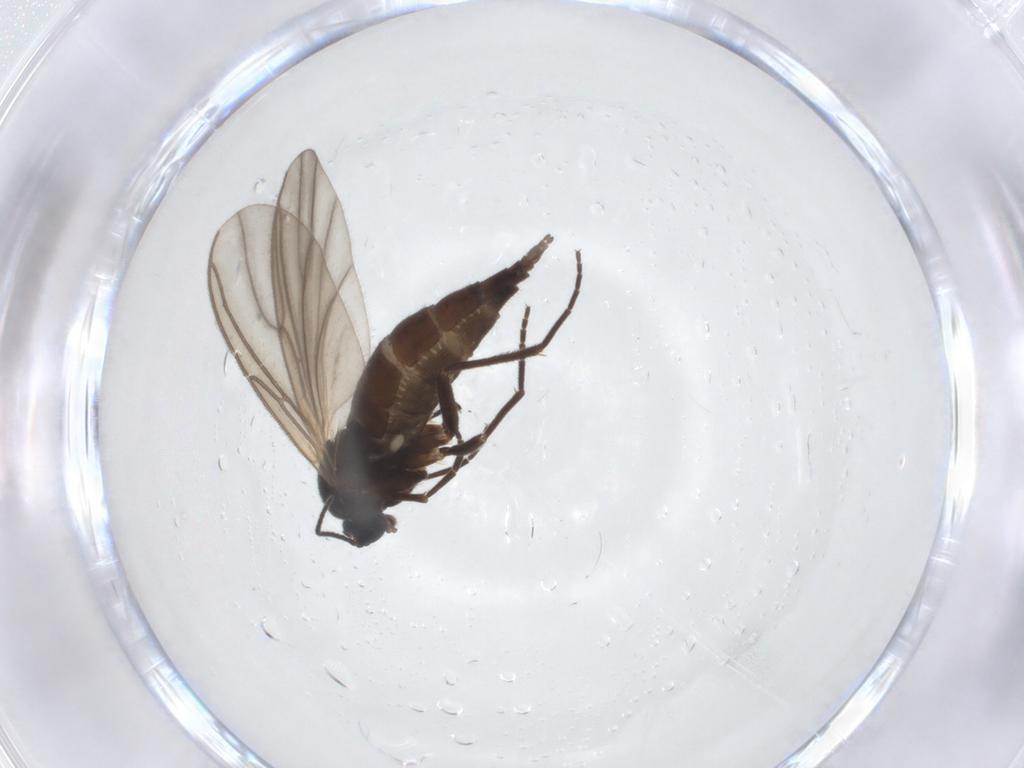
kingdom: Animalia
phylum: Arthropoda
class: Insecta
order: Diptera
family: Sciaridae
